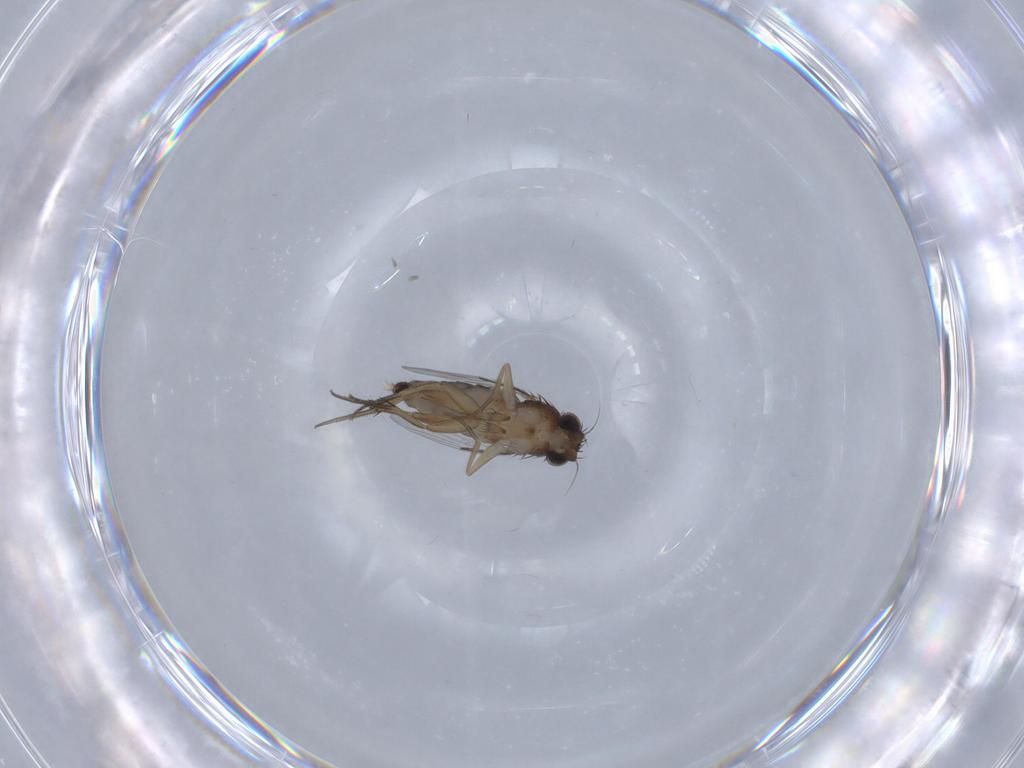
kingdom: Animalia
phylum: Arthropoda
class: Insecta
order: Diptera
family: Phoridae
